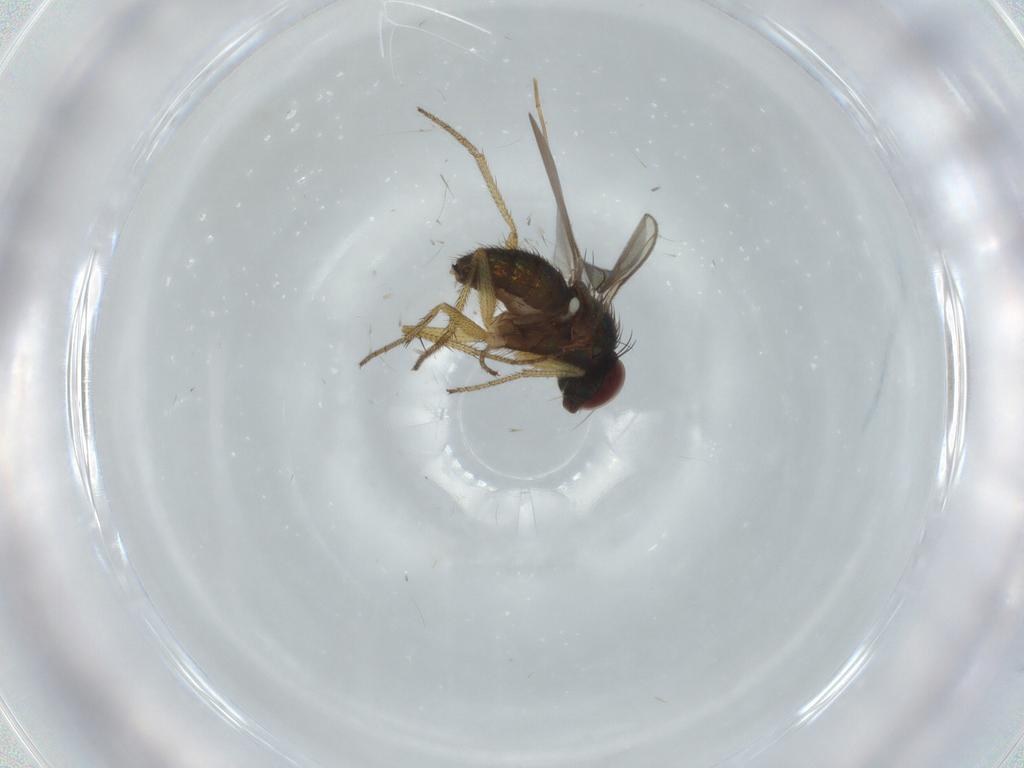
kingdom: Animalia
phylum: Arthropoda
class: Insecta
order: Diptera
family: Dolichopodidae
